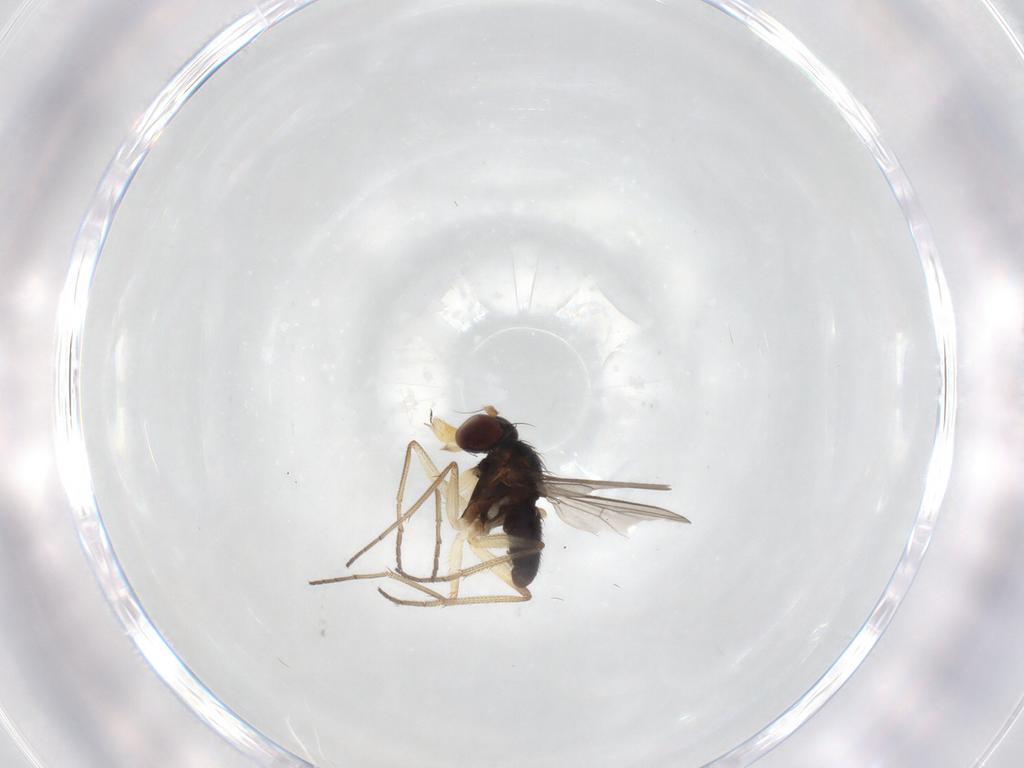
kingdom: Animalia
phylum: Arthropoda
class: Insecta
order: Diptera
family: Dolichopodidae
